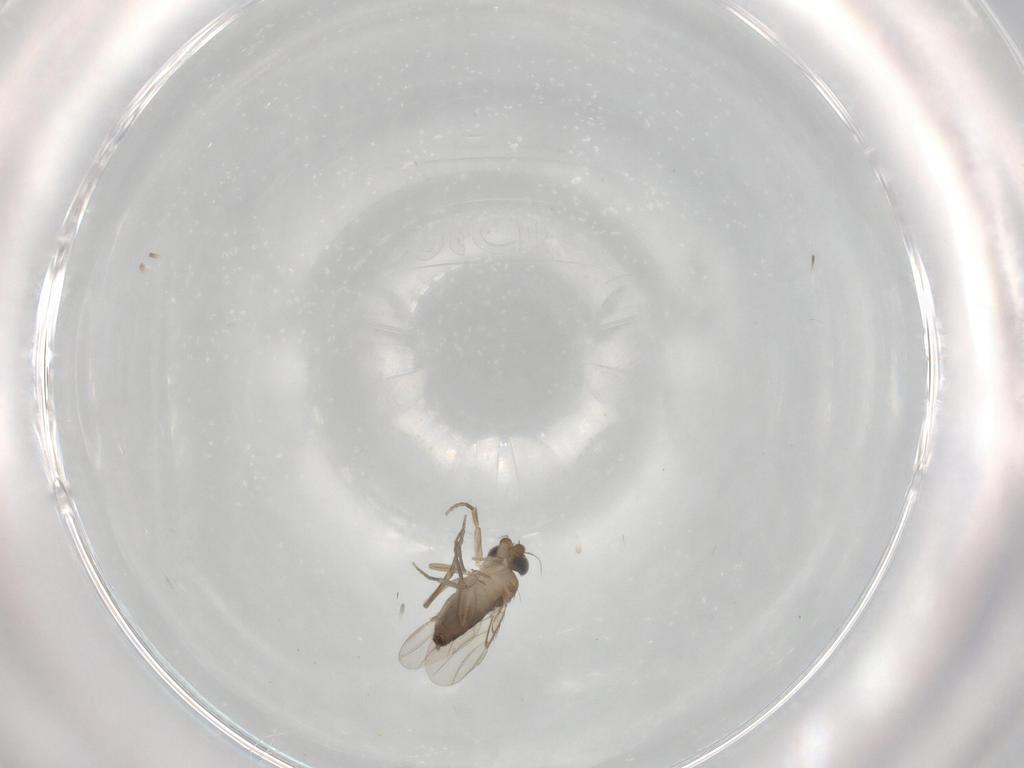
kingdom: Animalia
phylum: Arthropoda
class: Insecta
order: Diptera
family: Phoridae
